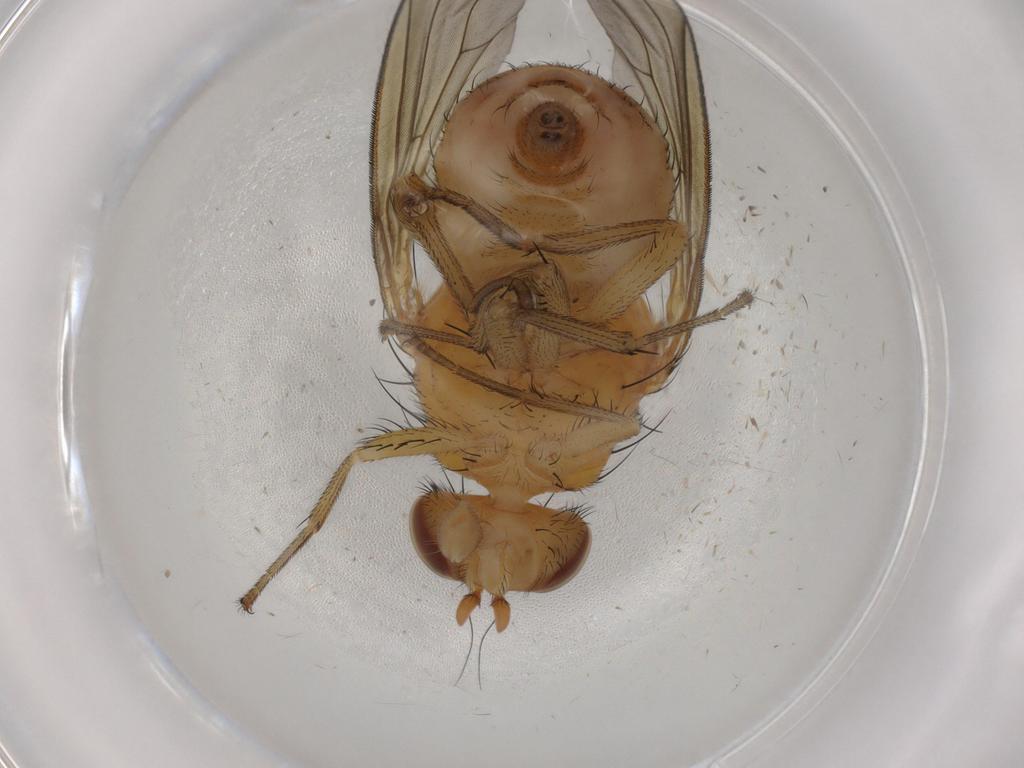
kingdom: Animalia
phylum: Arthropoda
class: Insecta
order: Diptera
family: Sciaridae
